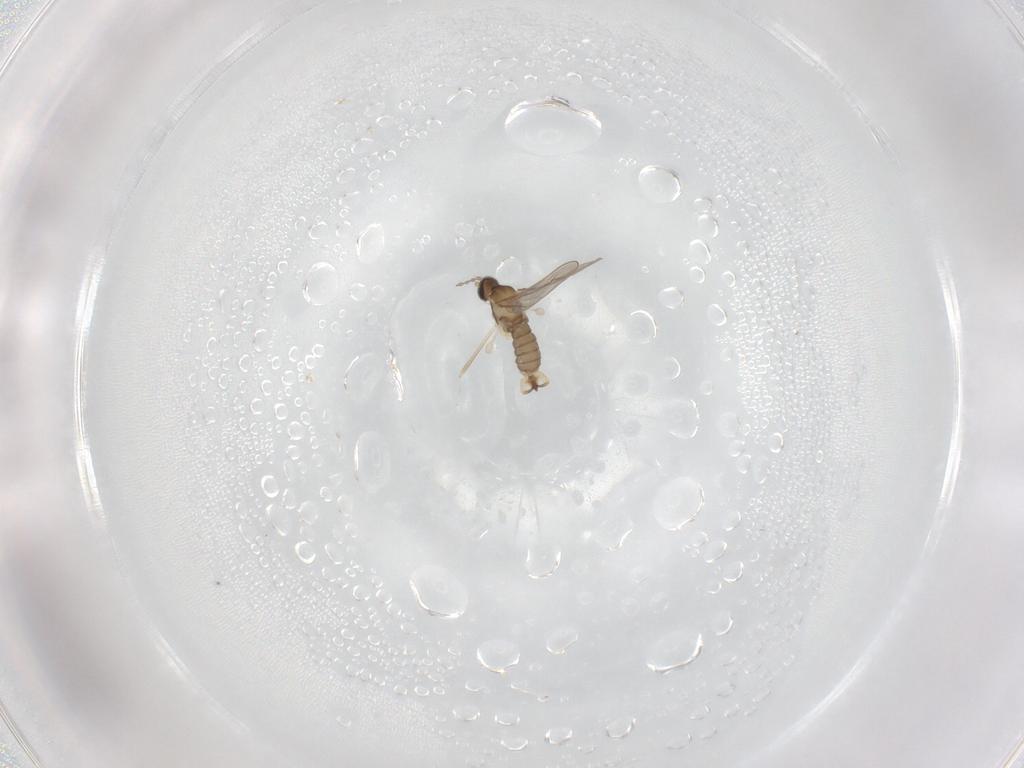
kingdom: Animalia
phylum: Arthropoda
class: Insecta
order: Diptera
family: Cecidomyiidae
